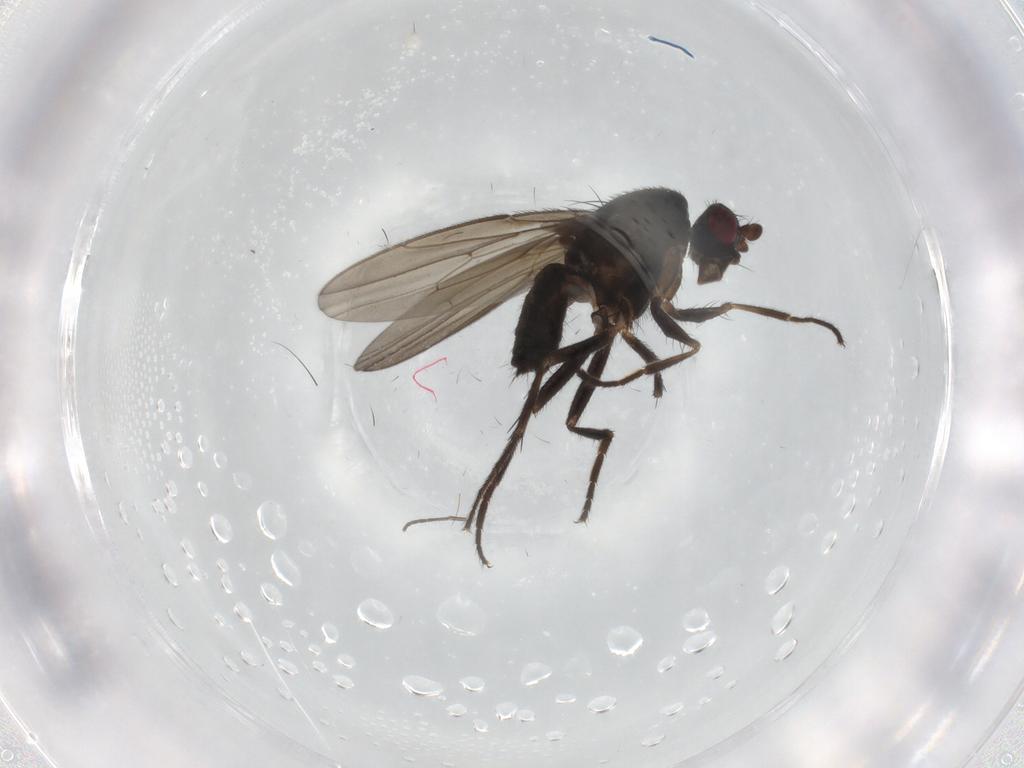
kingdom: Animalia
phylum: Arthropoda
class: Insecta
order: Diptera
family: Sphaeroceridae
